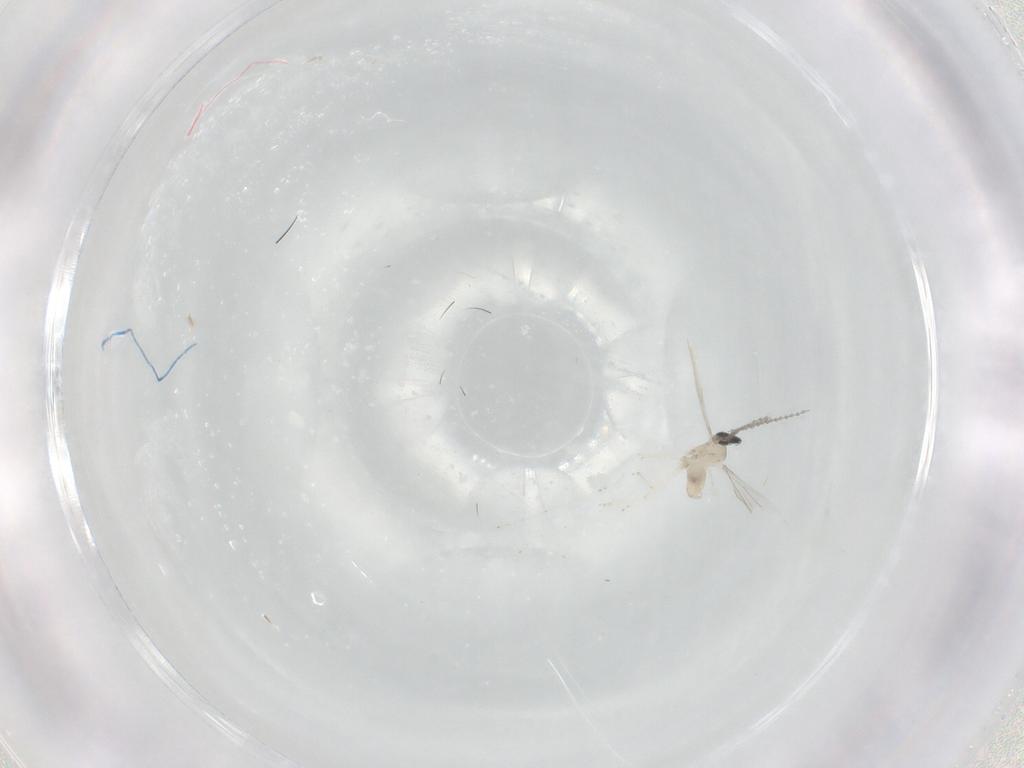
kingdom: Animalia
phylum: Arthropoda
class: Insecta
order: Diptera
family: Cecidomyiidae
